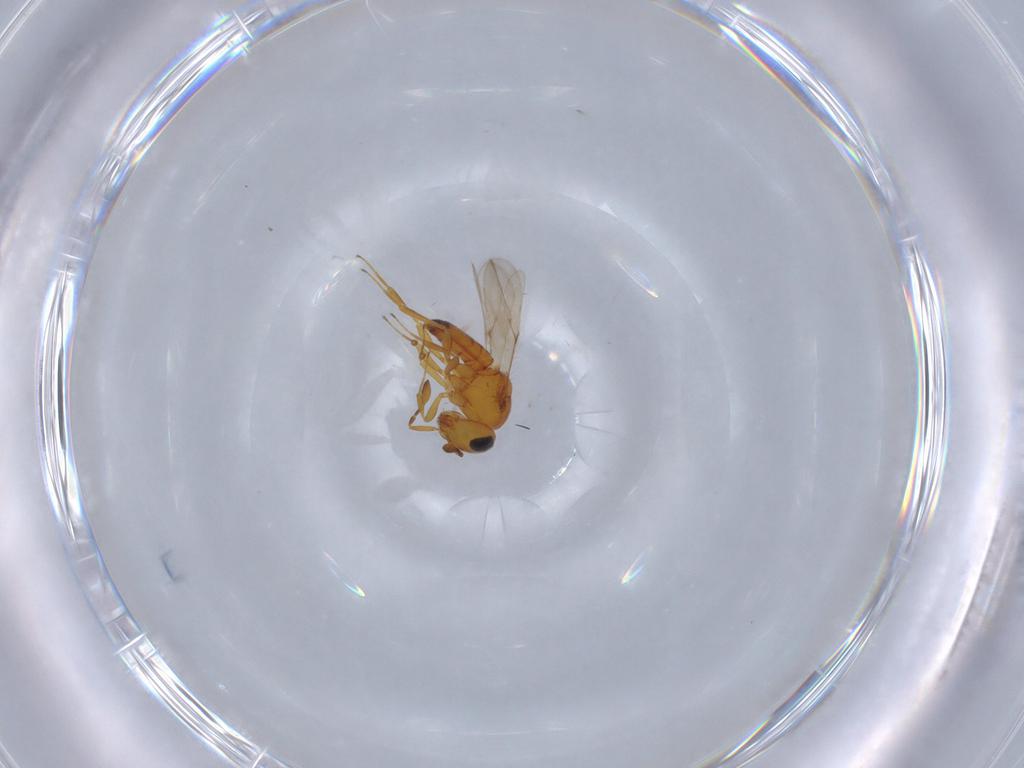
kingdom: Animalia
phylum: Arthropoda
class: Insecta
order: Hymenoptera
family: Scelionidae
